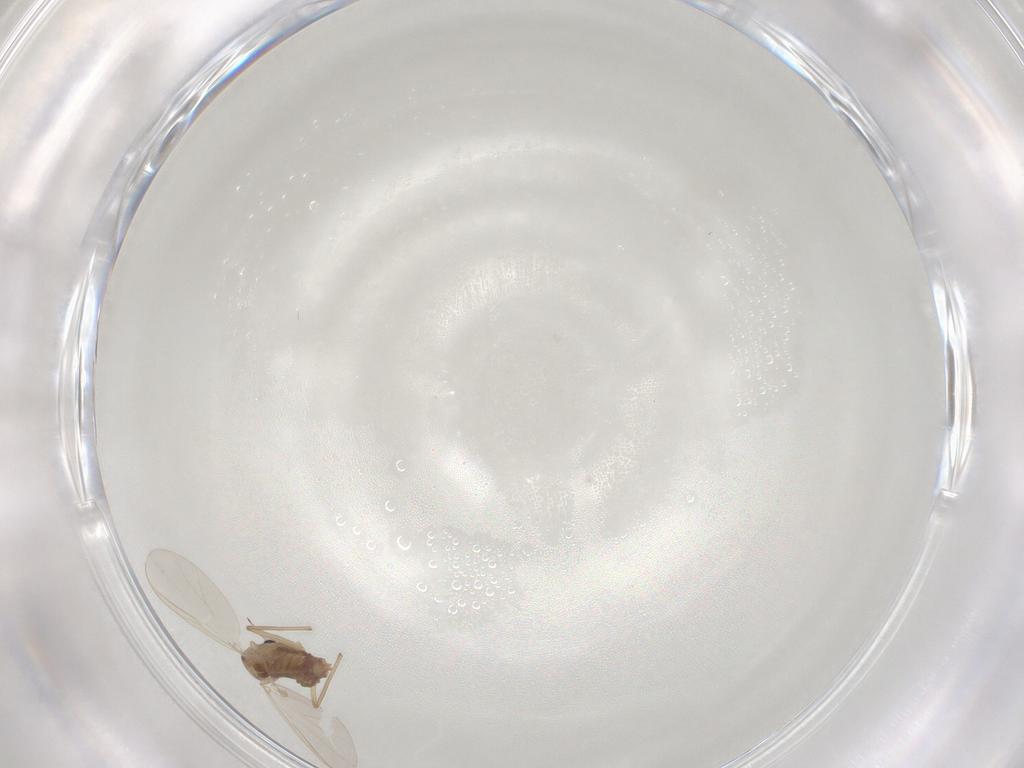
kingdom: Animalia
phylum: Arthropoda
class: Insecta
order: Diptera
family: Chironomidae
